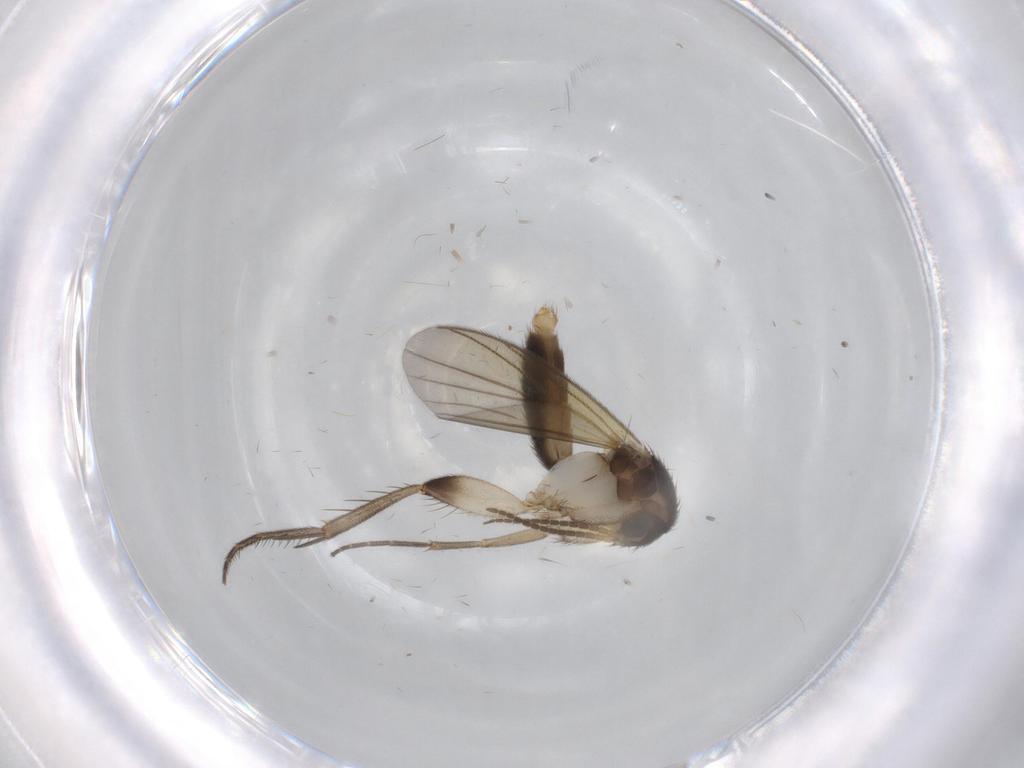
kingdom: Animalia
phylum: Arthropoda
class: Insecta
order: Diptera
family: Mycetophilidae
